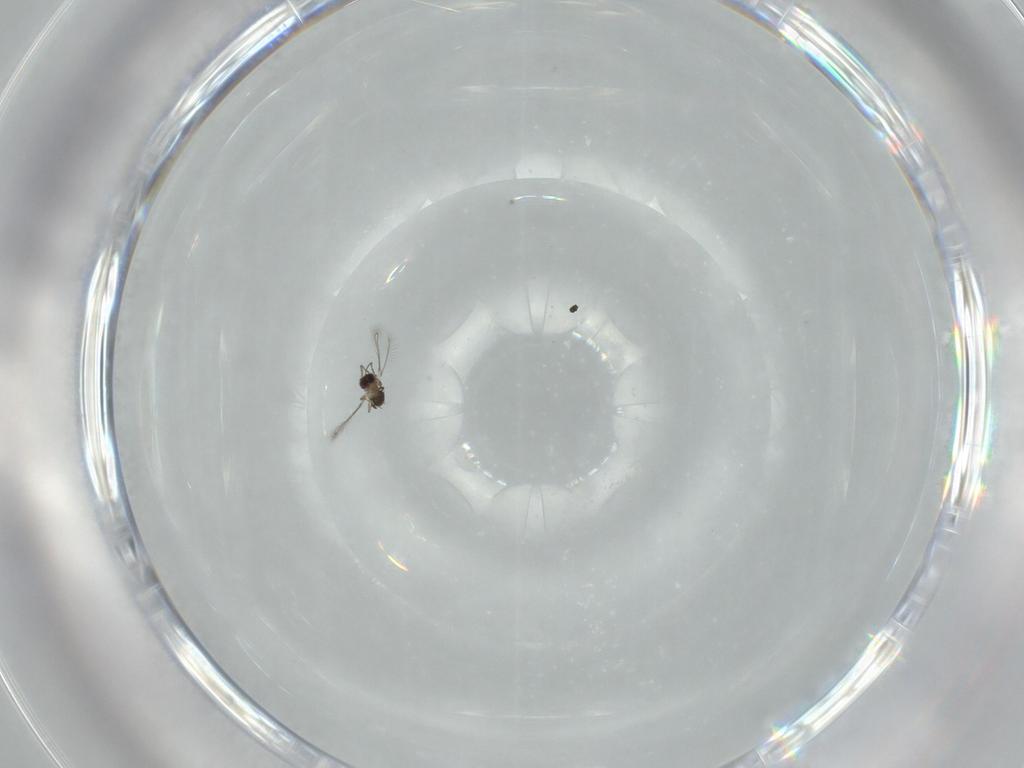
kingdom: Animalia
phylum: Arthropoda
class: Insecta
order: Hymenoptera
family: Mymaridae
